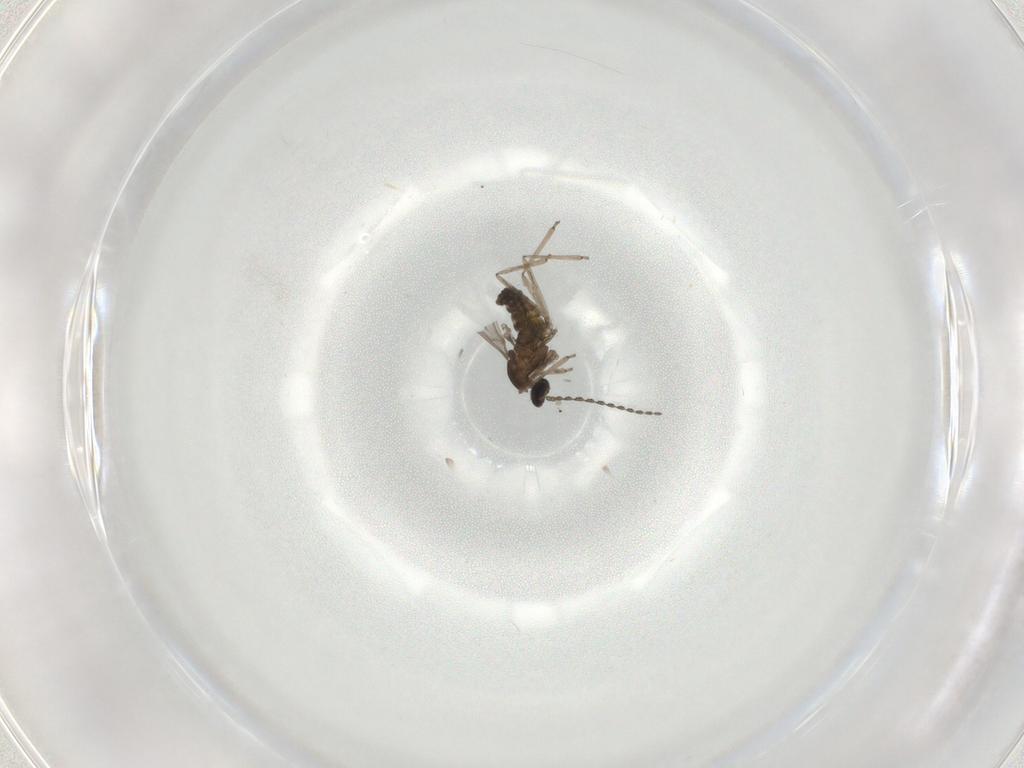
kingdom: Animalia
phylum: Arthropoda
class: Insecta
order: Diptera
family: Cecidomyiidae
